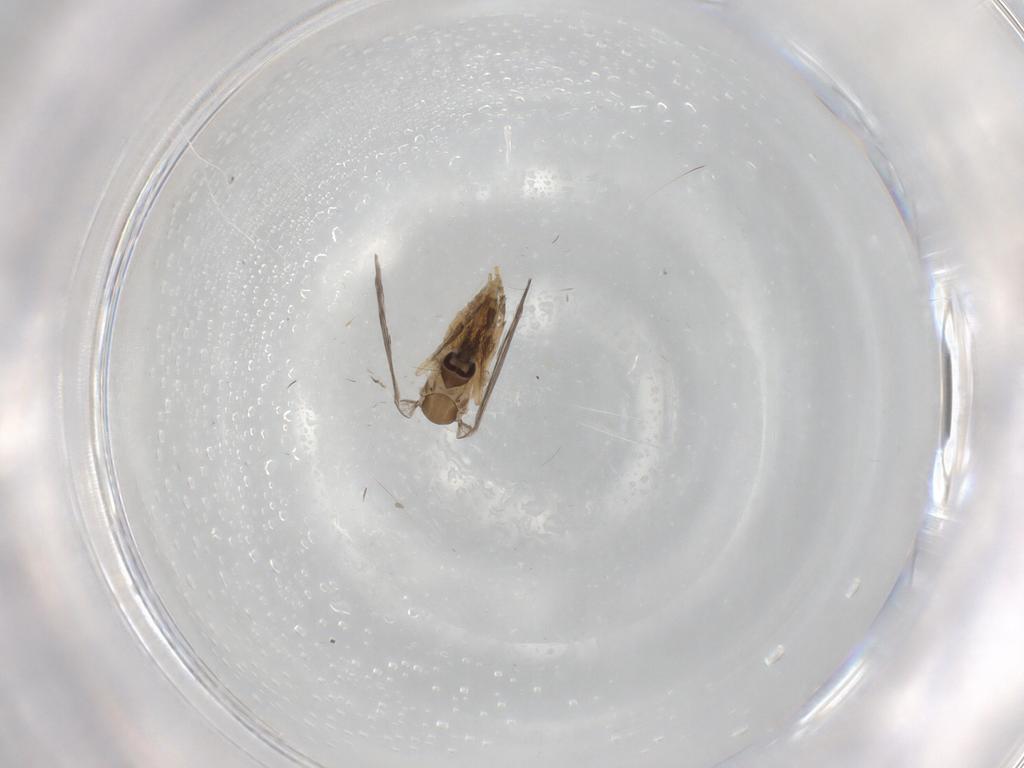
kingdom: Animalia
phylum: Arthropoda
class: Insecta
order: Diptera
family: Psychodidae
